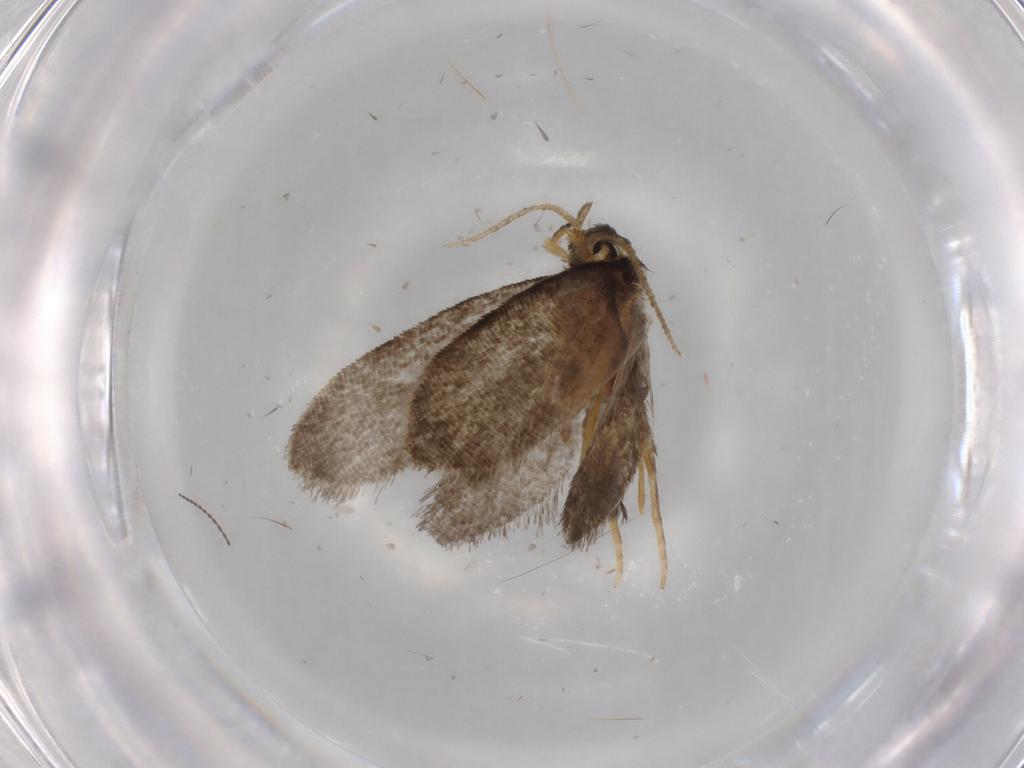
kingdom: Animalia
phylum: Arthropoda
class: Insecta
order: Lepidoptera
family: Psychidae
